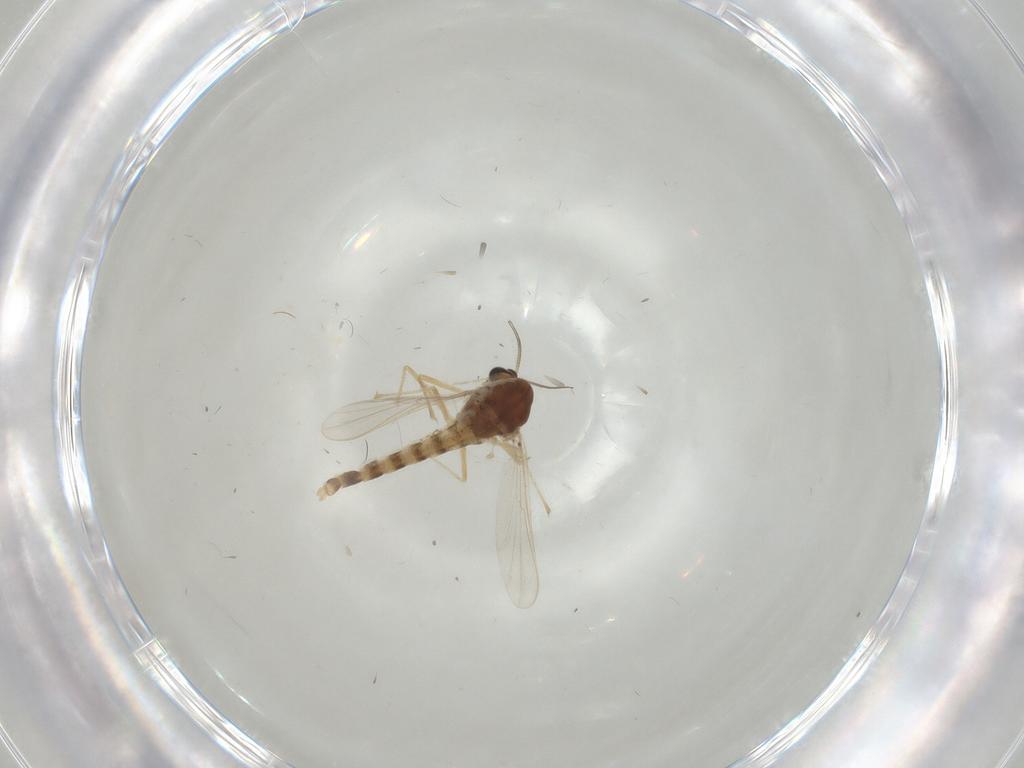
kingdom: Animalia
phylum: Arthropoda
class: Insecta
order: Diptera
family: Chironomidae
